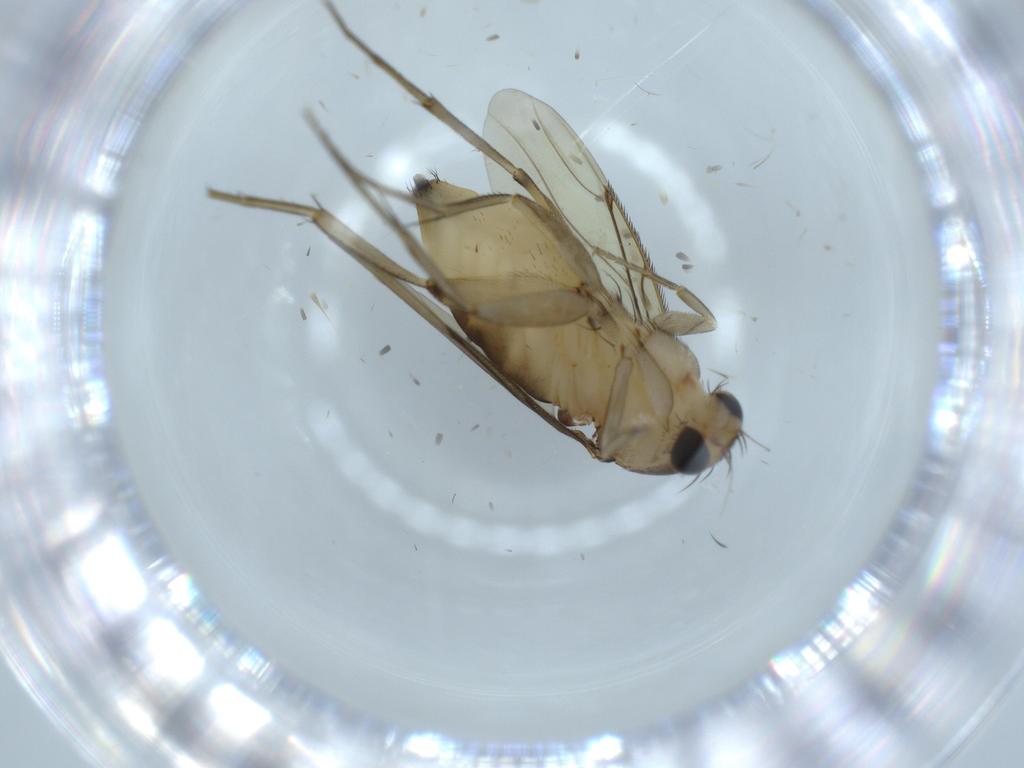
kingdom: Animalia
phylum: Arthropoda
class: Insecta
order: Diptera
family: Cecidomyiidae
